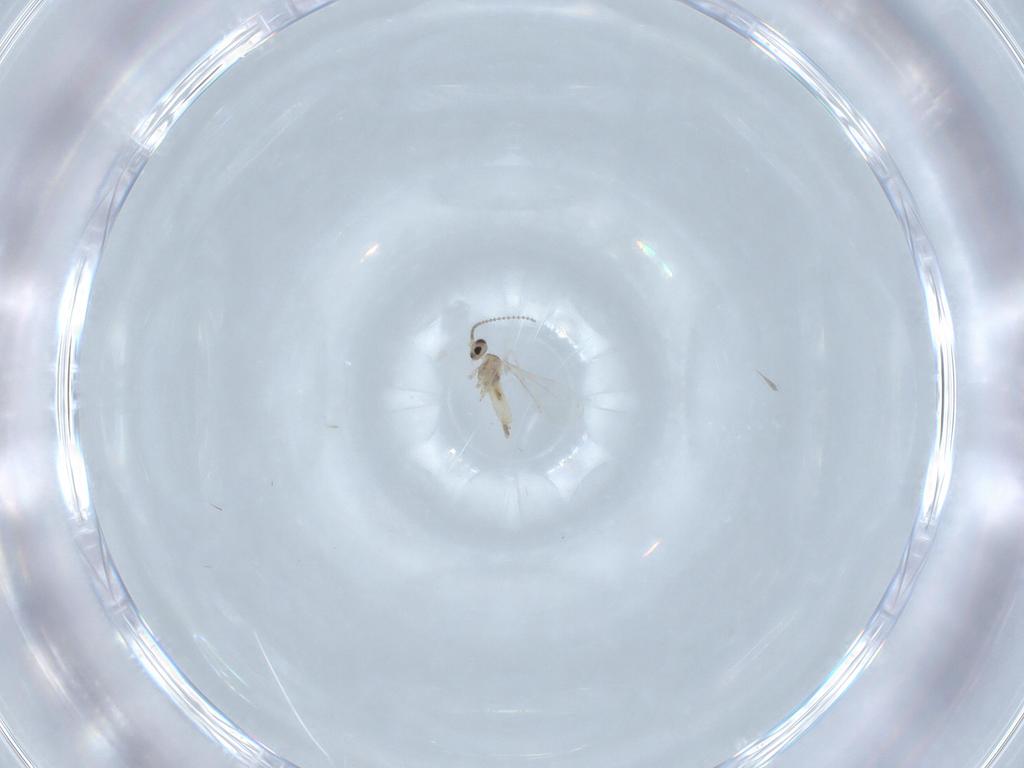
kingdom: Animalia
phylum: Arthropoda
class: Insecta
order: Diptera
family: Cecidomyiidae
